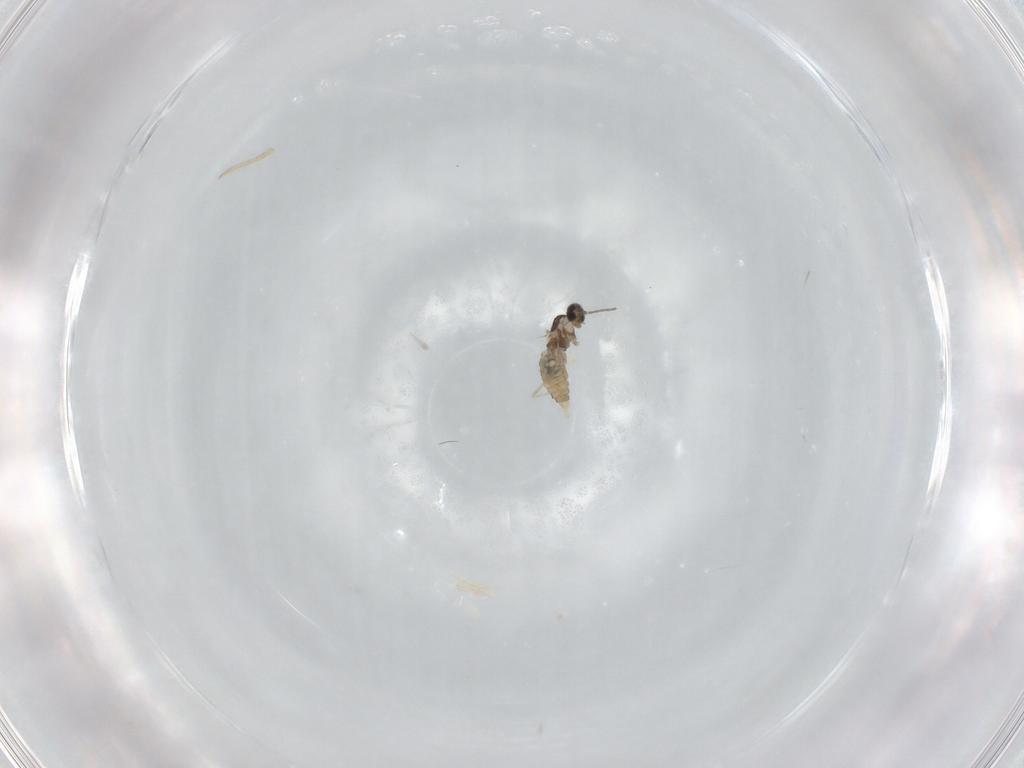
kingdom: Animalia
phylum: Arthropoda
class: Insecta
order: Diptera
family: Cecidomyiidae
